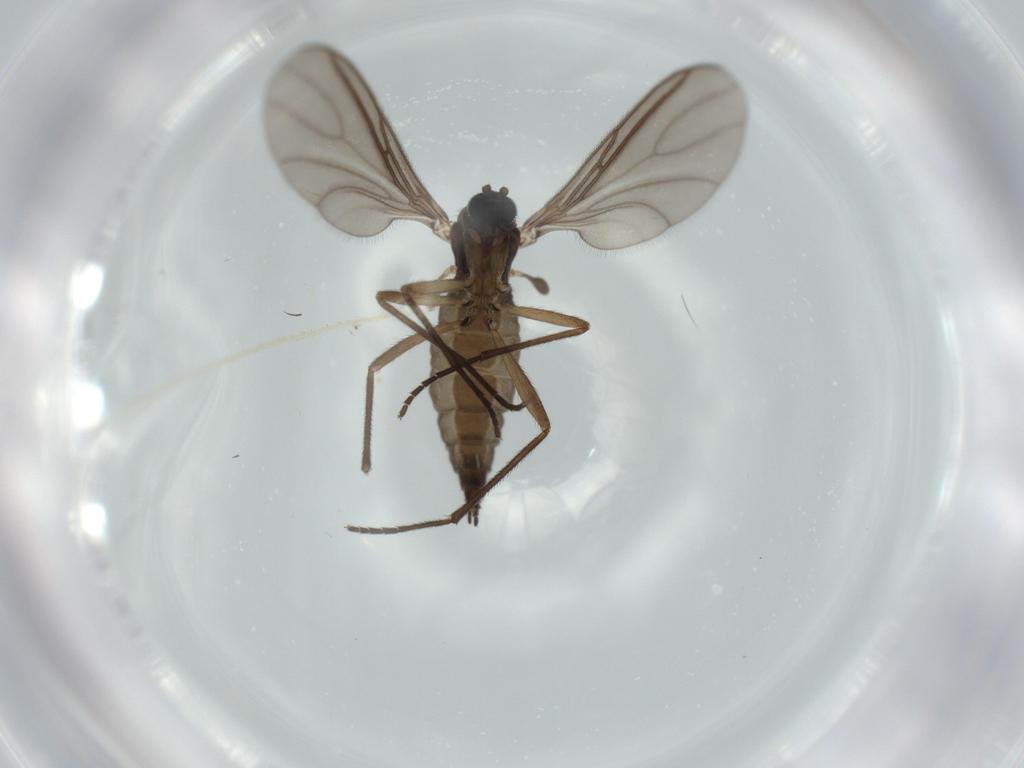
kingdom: Animalia
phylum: Arthropoda
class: Insecta
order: Diptera
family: Sciaridae
